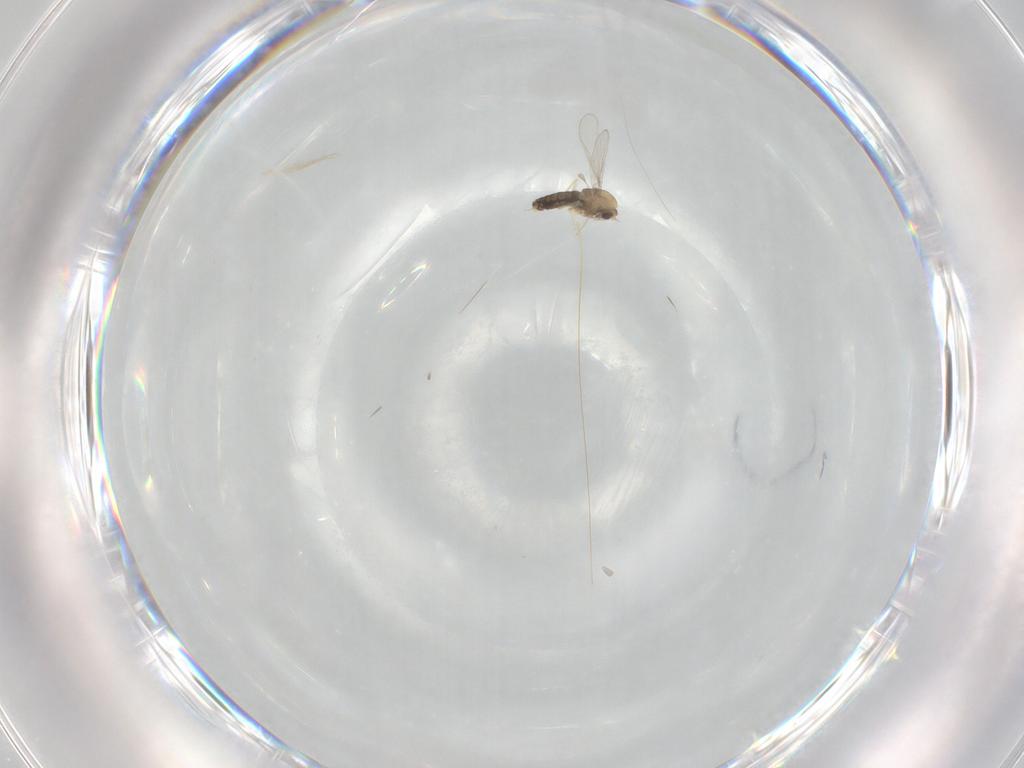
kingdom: Animalia
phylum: Arthropoda
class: Insecta
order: Diptera
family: Chironomidae
